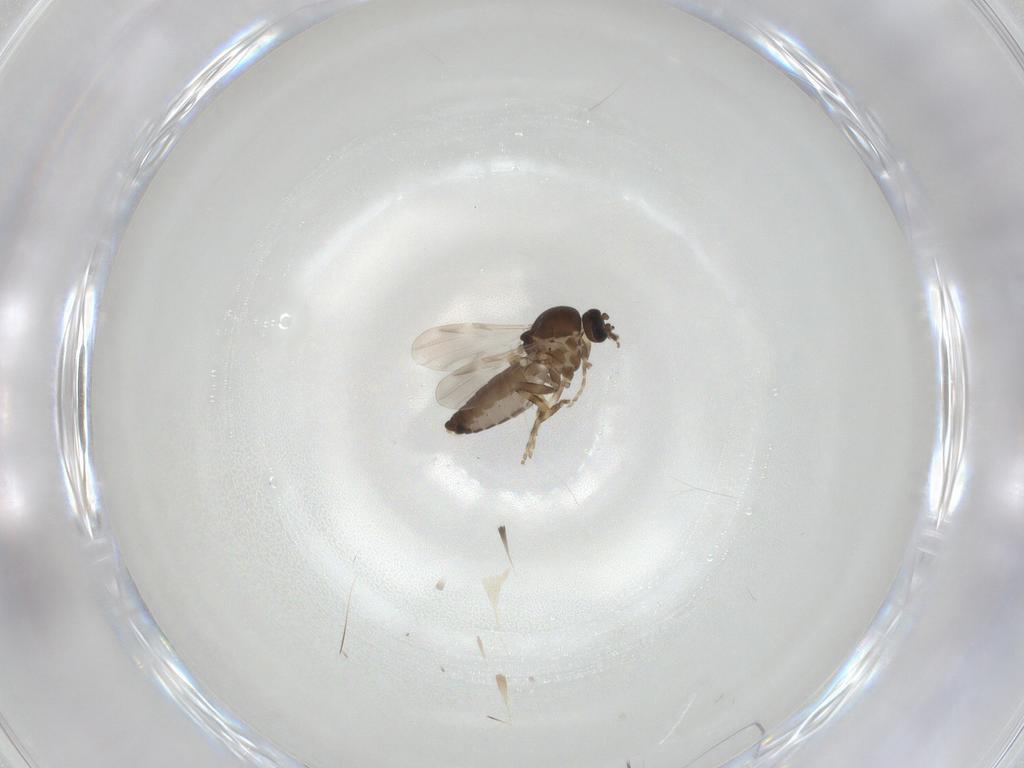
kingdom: Animalia
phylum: Arthropoda
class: Insecta
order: Diptera
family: Ceratopogonidae
